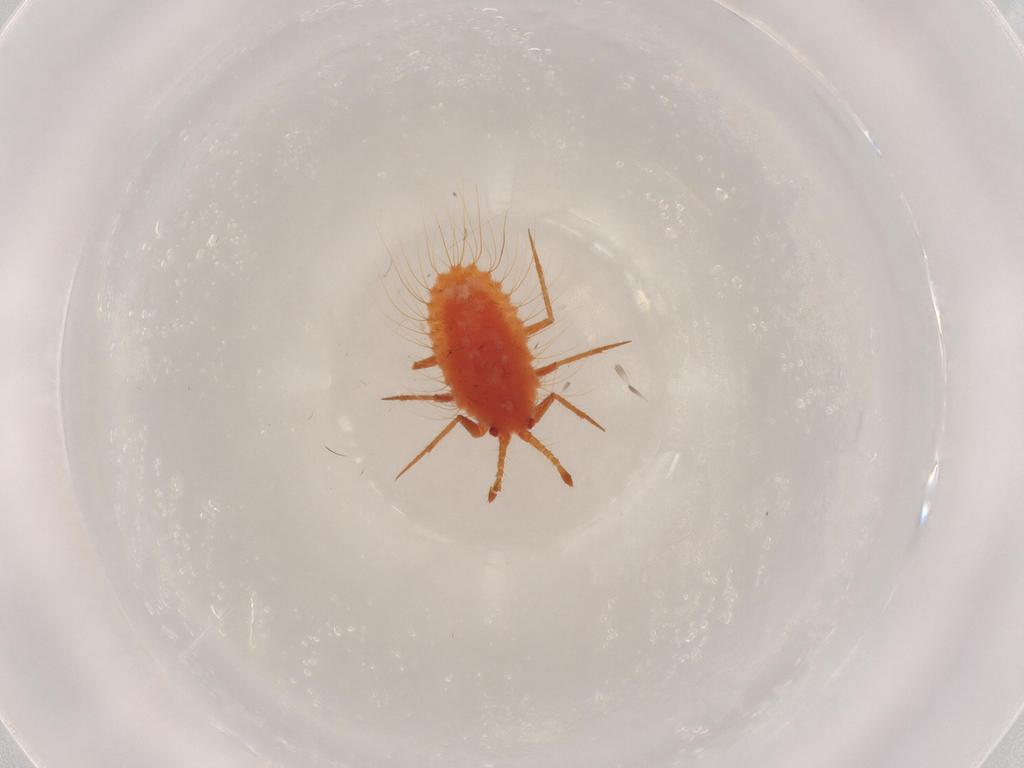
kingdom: Animalia
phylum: Arthropoda
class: Insecta
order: Hemiptera
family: Monophlebidae
